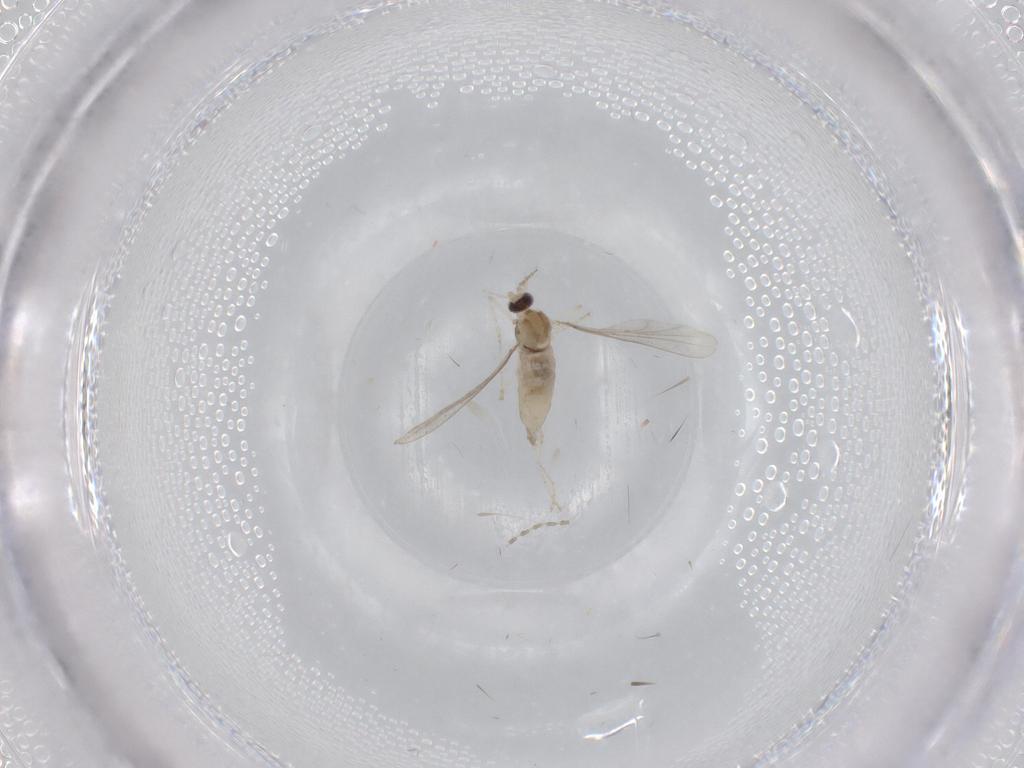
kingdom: Animalia
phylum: Arthropoda
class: Insecta
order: Diptera
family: Cecidomyiidae
